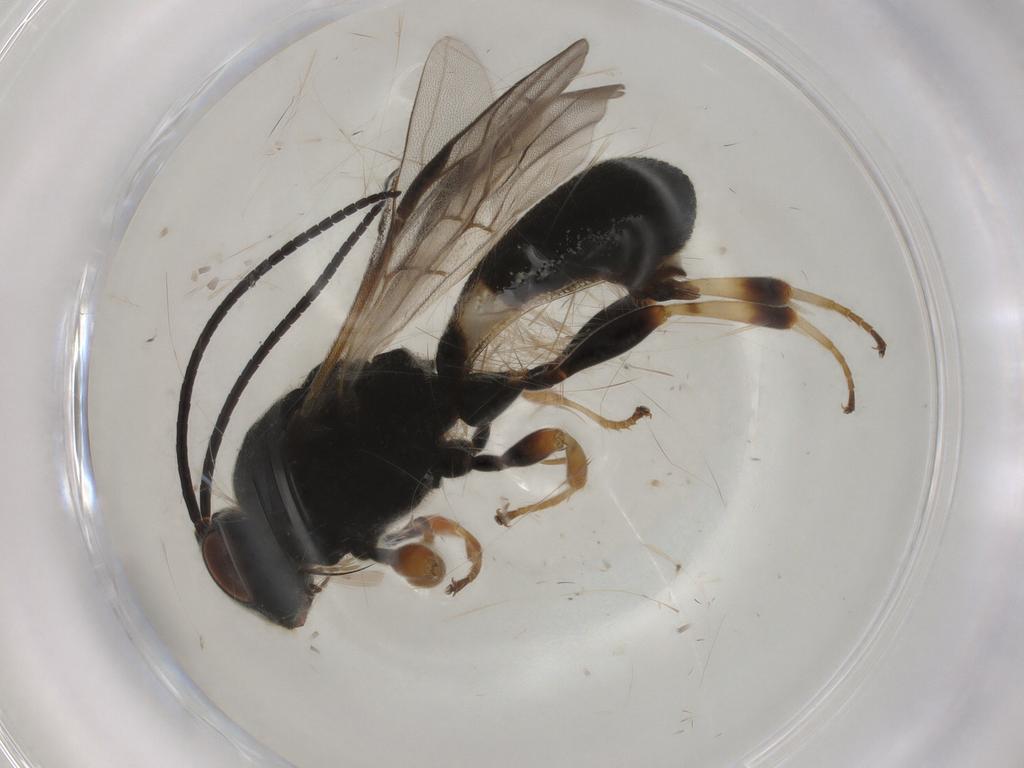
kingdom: Animalia
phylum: Arthropoda
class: Insecta
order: Hymenoptera
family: Braconidae
